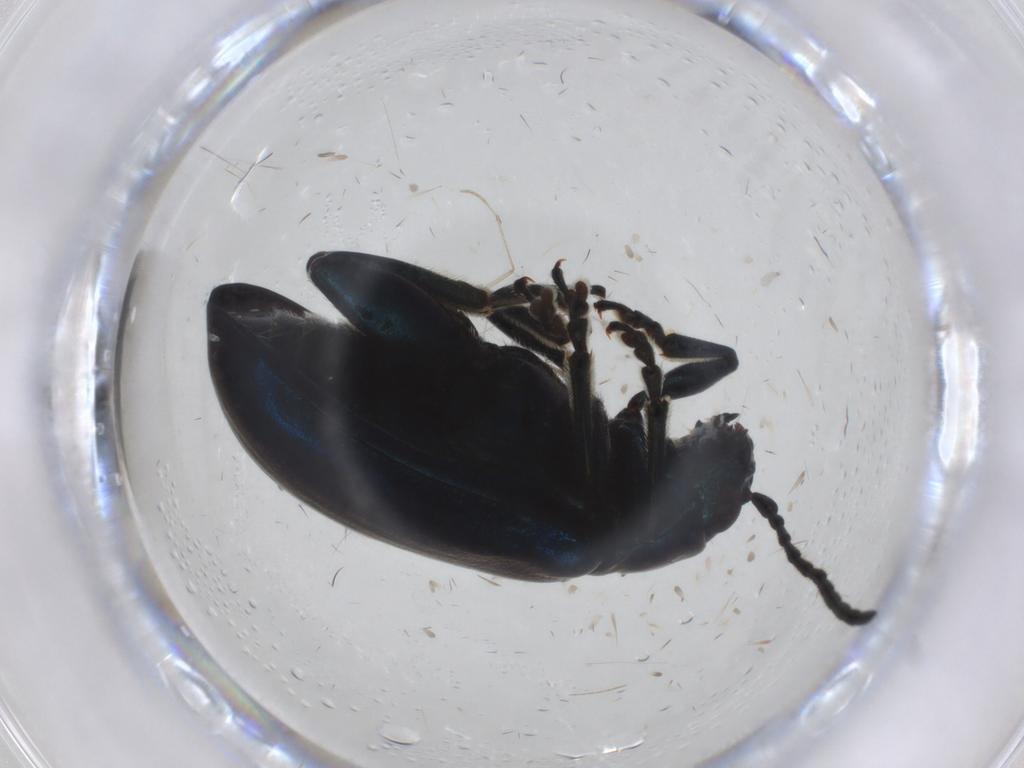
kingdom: Animalia
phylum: Arthropoda
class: Insecta
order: Coleoptera
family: Chrysomelidae
